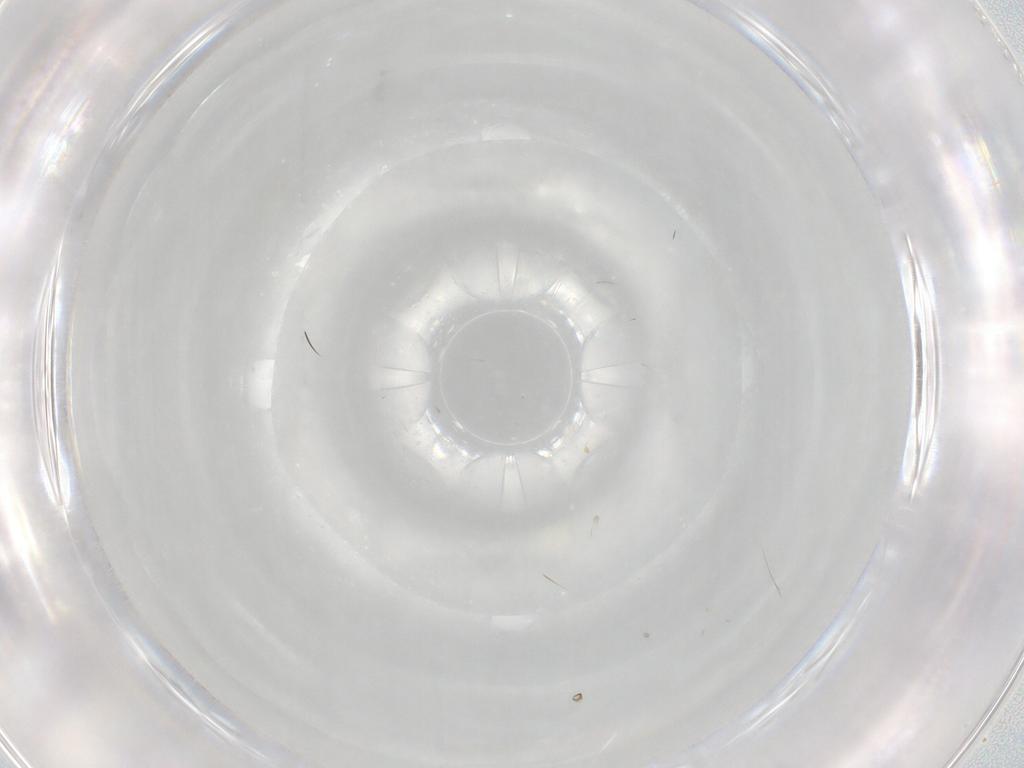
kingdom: Animalia
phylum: Arthropoda
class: Insecta
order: Diptera
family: Cecidomyiidae
